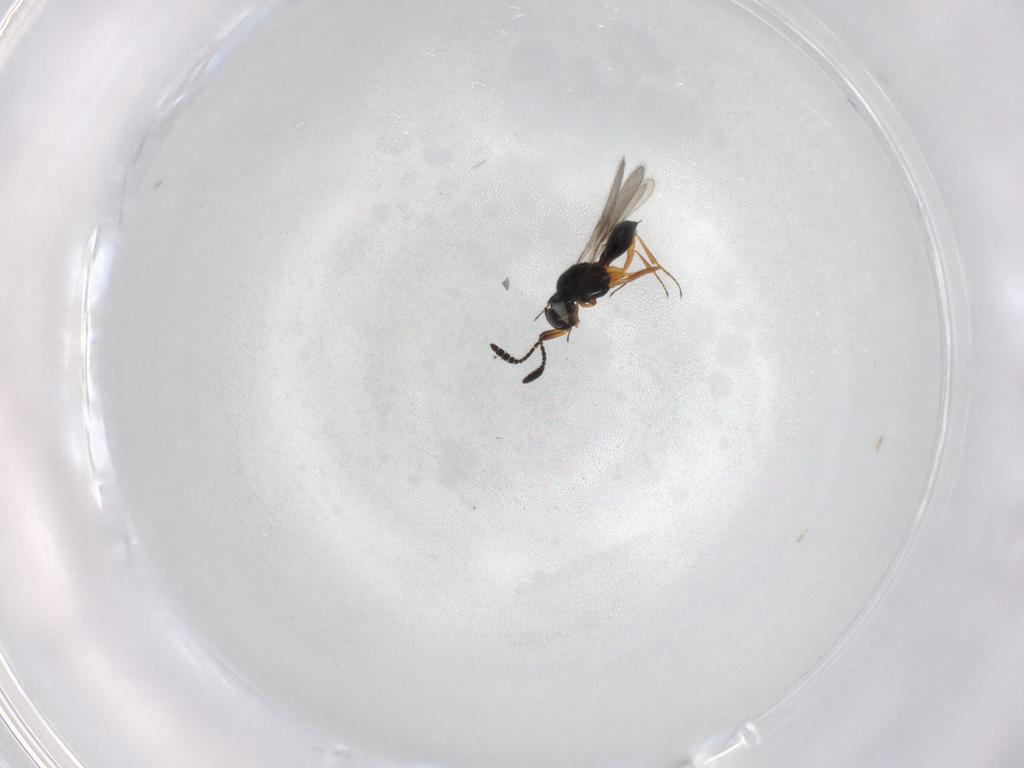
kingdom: Animalia
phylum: Arthropoda
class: Insecta
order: Hymenoptera
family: Scelionidae
